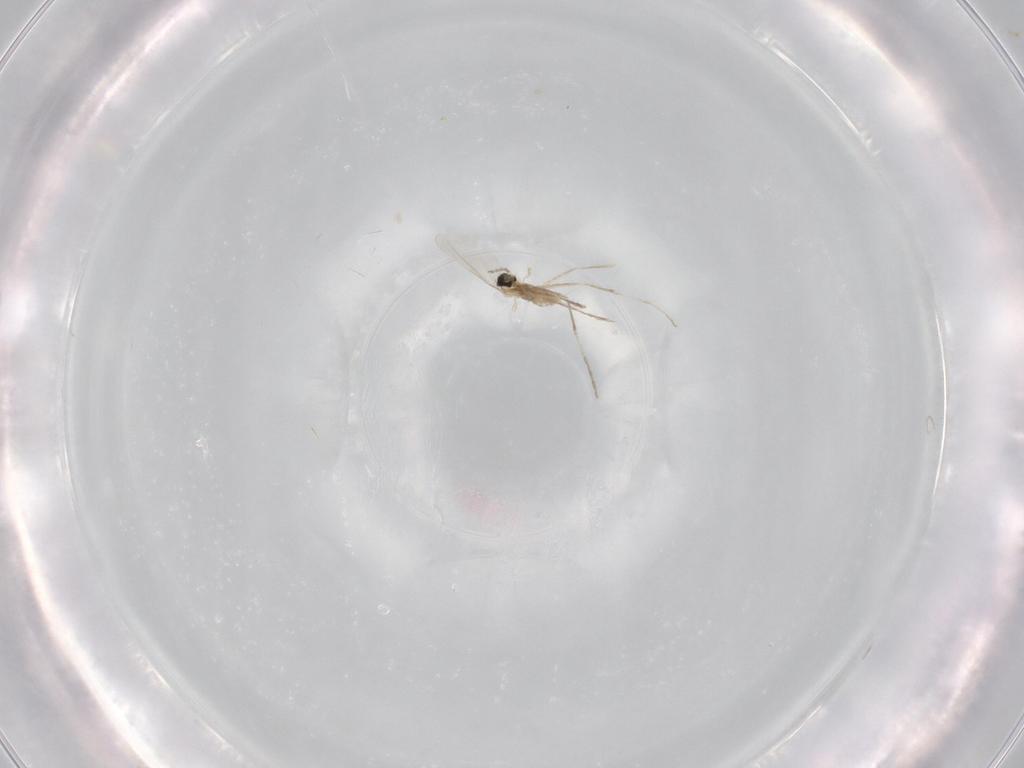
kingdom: Animalia
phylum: Arthropoda
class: Insecta
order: Diptera
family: Cecidomyiidae
